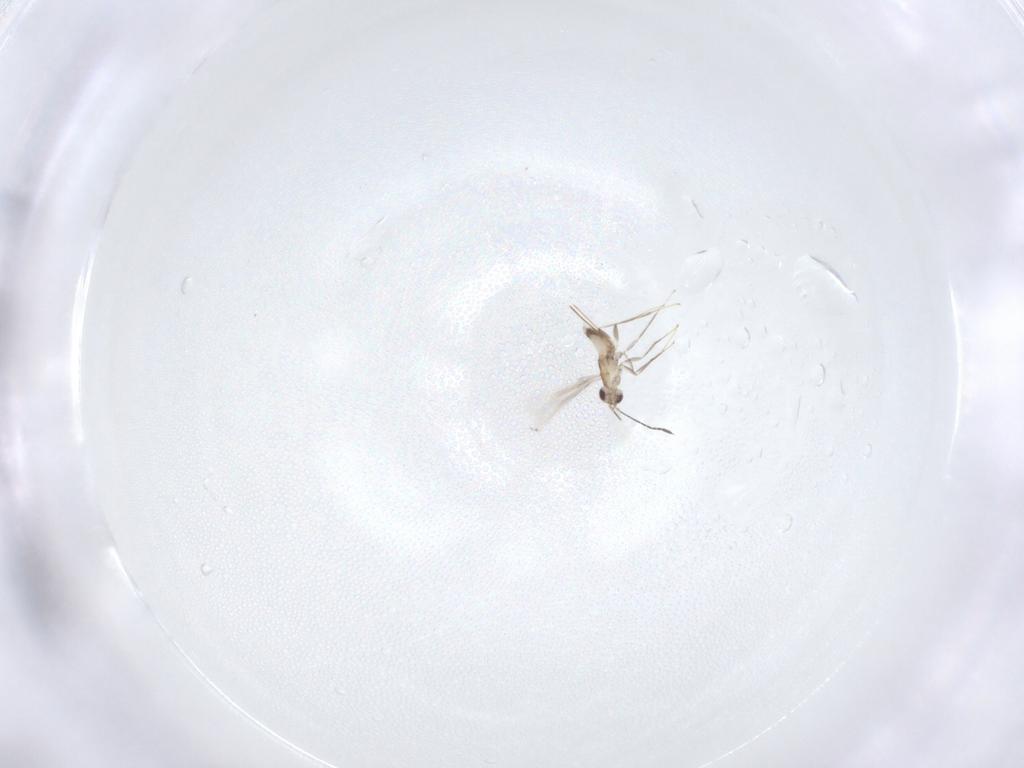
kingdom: Animalia
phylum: Arthropoda
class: Insecta
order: Hymenoptera
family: Mymaridae
